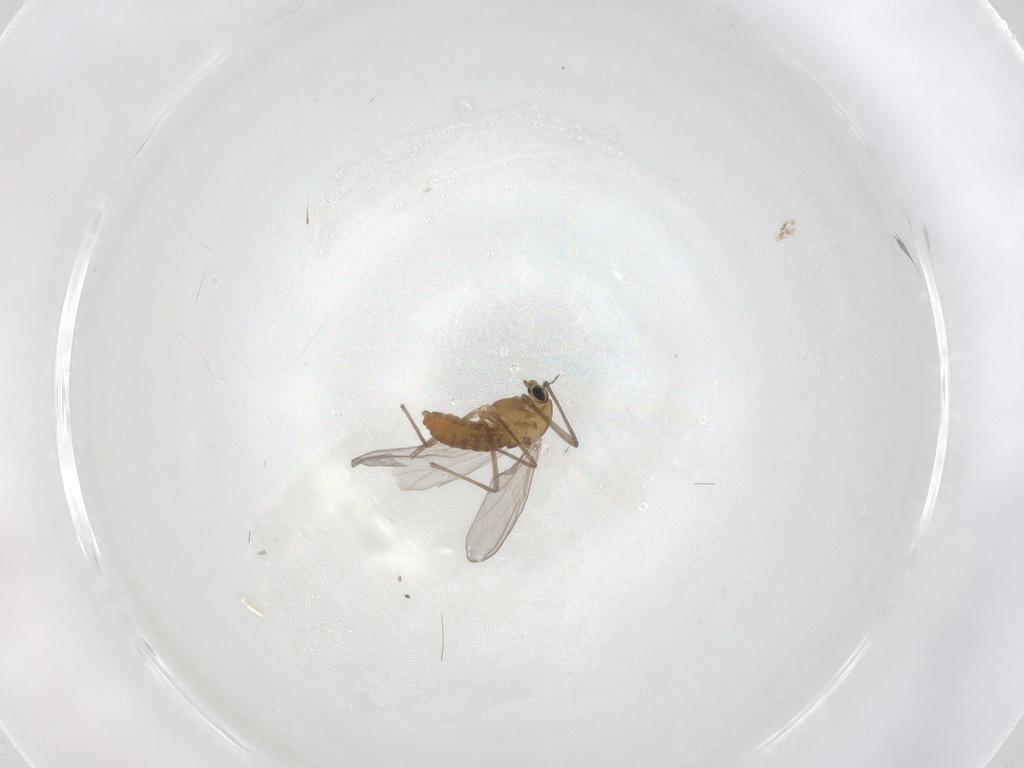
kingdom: Animalia
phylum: Arthropoda
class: Insecta
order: Diptera
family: Chironomidae
